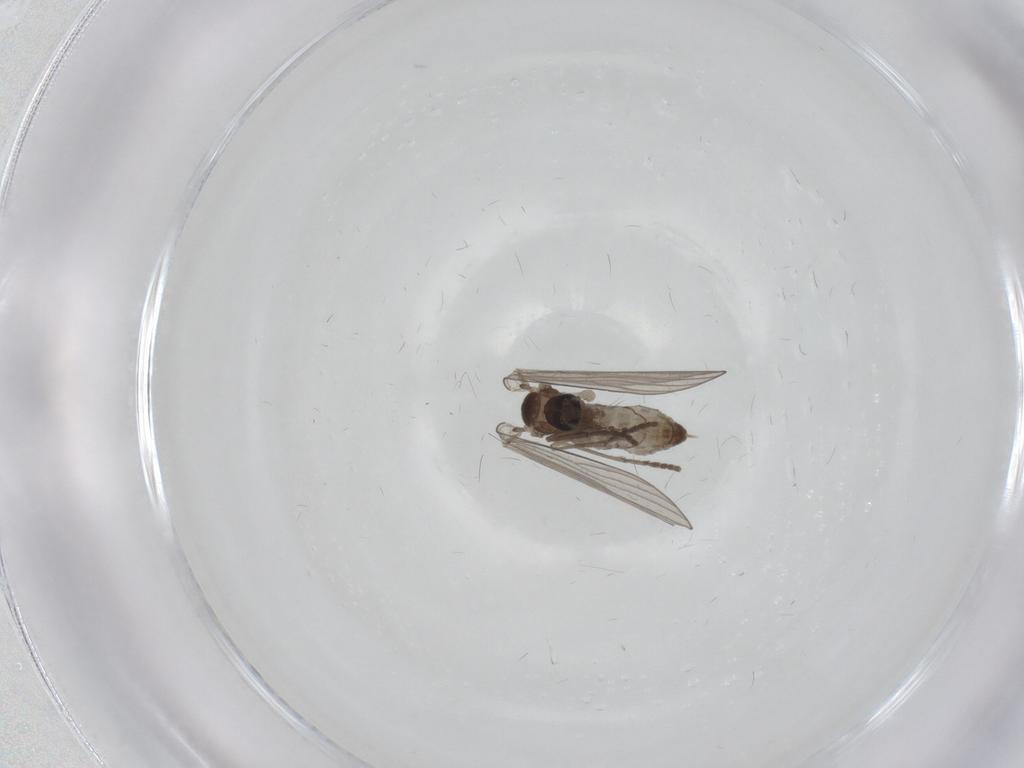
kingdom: Animalia
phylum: Arthropoda
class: Insecta
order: Diptera
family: Psychodidae
